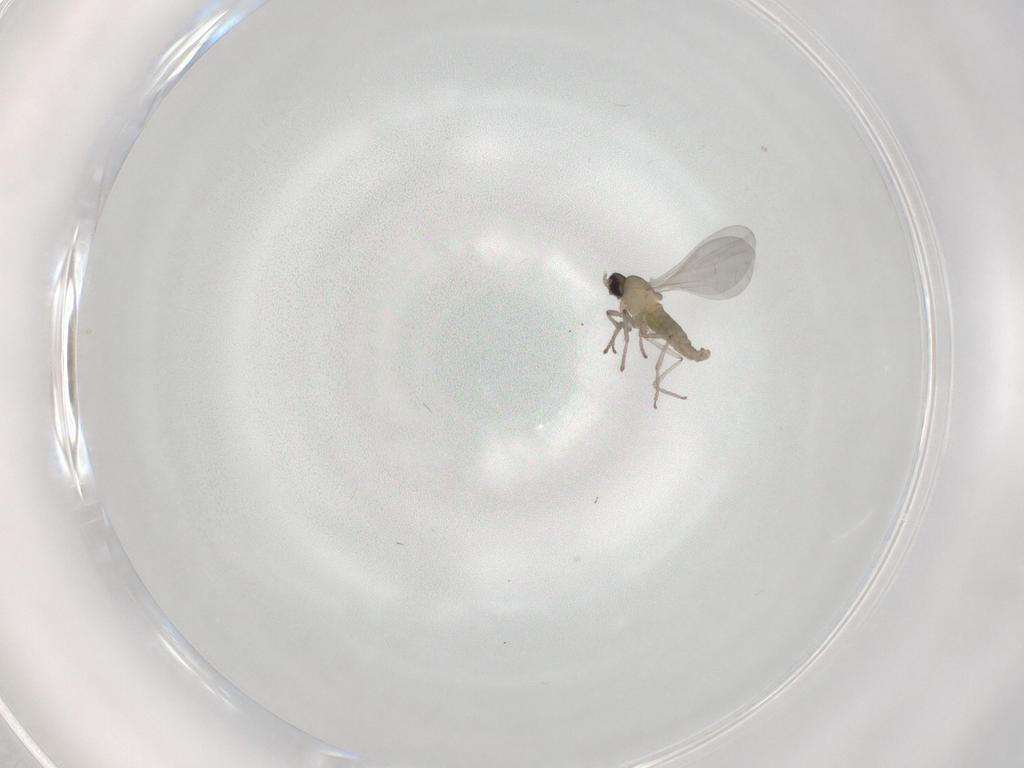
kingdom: Animalia
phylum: Arthropoda
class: Insecta
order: Diptera
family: Cecidomyiidae
